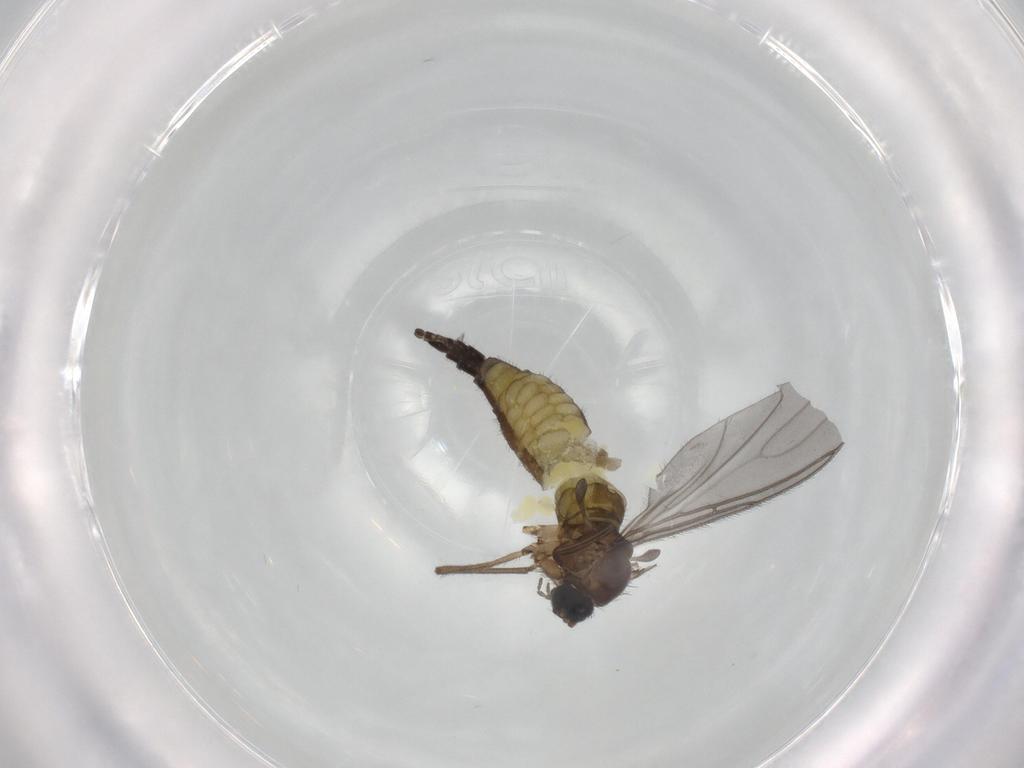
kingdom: Animalia
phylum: Arthropoda
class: Insecta
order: Diptera
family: Sciaridae
